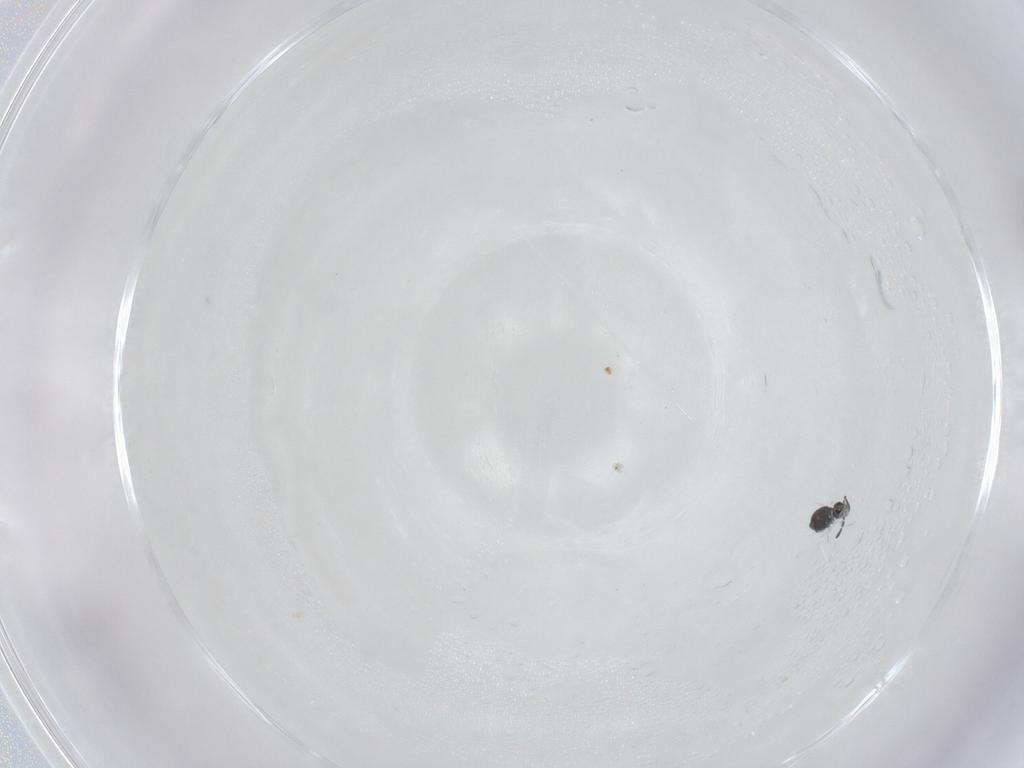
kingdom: Animalia
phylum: Arthropoda
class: Collembola
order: Symphypleona
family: Katiannidae
